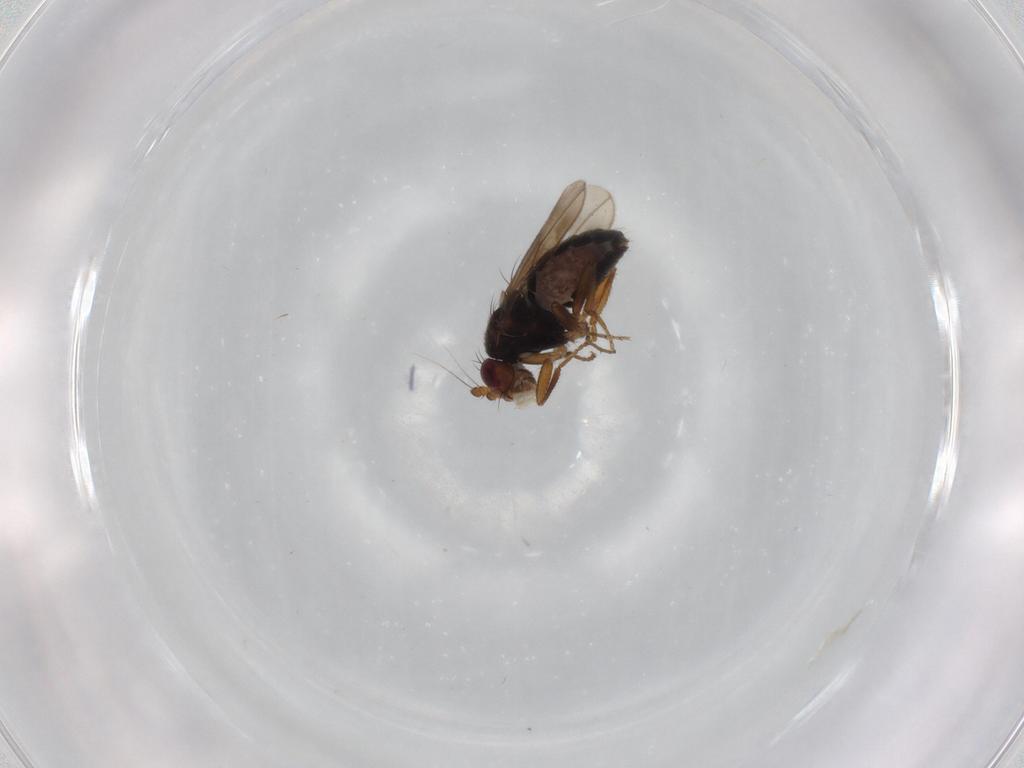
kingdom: Animalia
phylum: Arthropoda
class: Insecta
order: Diptera
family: Sphaeroceridae
